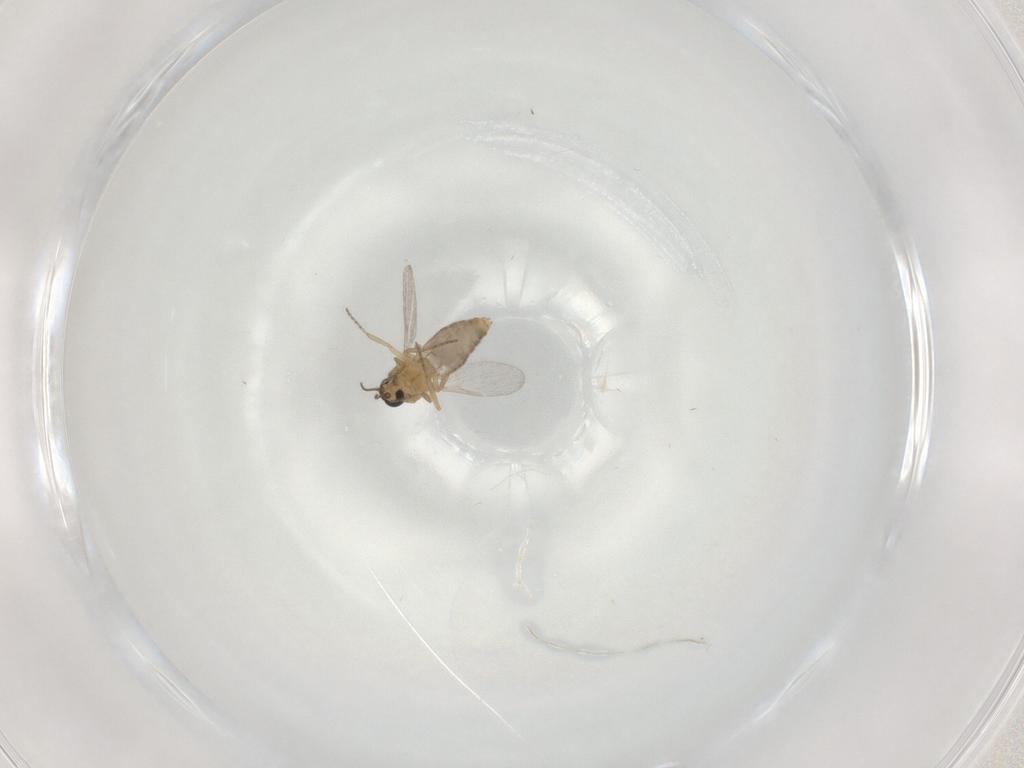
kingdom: Animalia
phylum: Arthropoda
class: Insecta
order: Diptera
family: Ceratopogonidae
